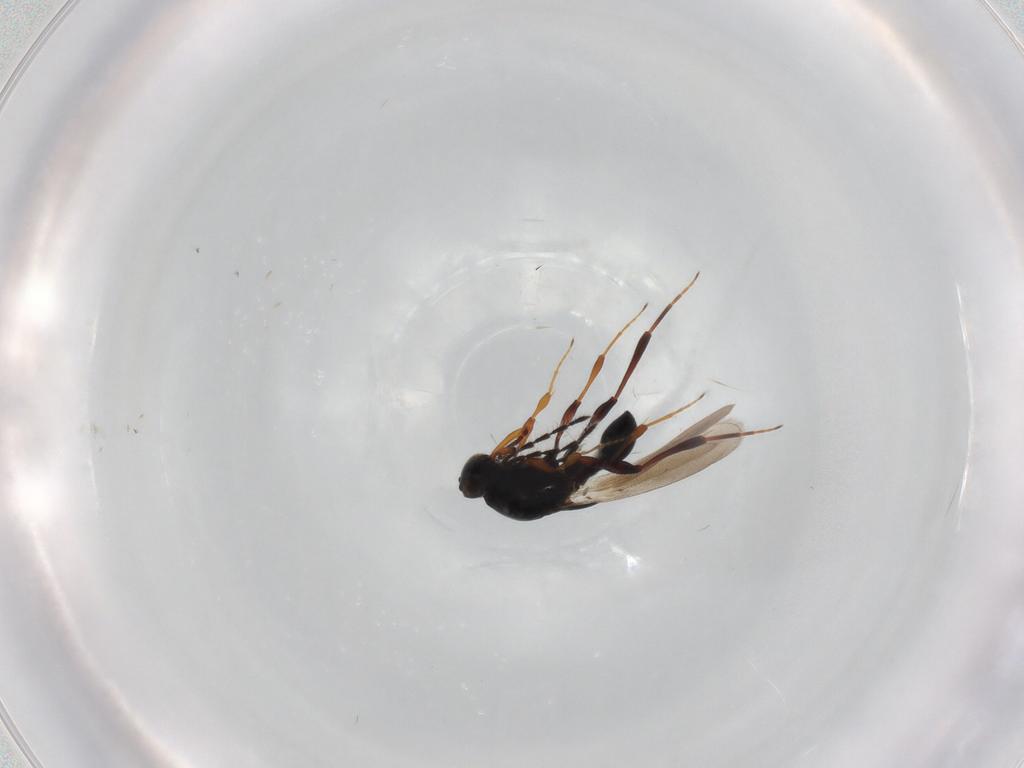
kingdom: Animalia
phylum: Arthropoda
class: Insecta
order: Hymenoptera
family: Platygastridae
